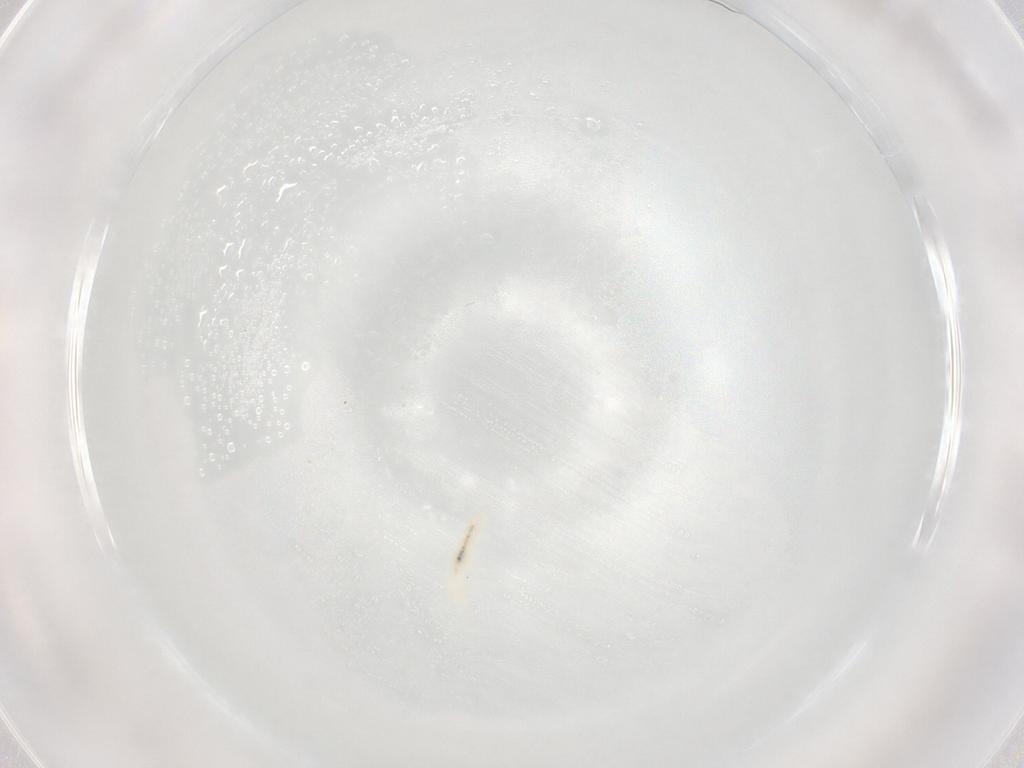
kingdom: Animalia
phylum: Arthropoda
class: Collembola
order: Poduromorpha
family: Onychiuridae
